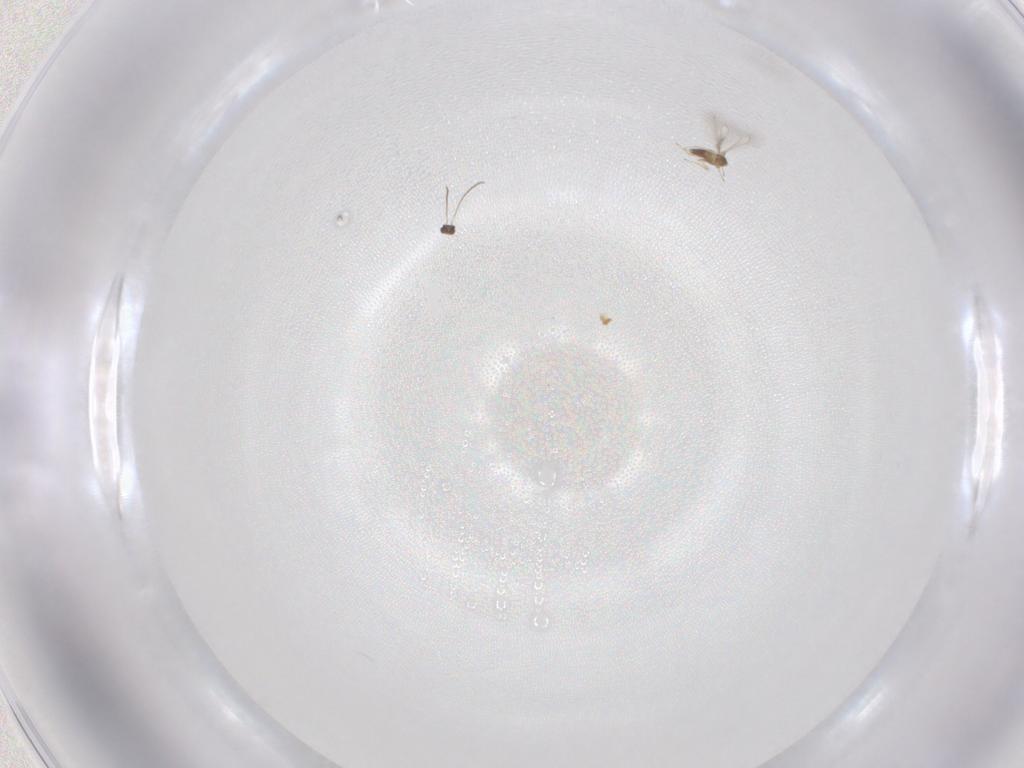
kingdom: Animalia
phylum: Arthropoda
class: Insecta
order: Hymenoptera
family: Mymaridae
